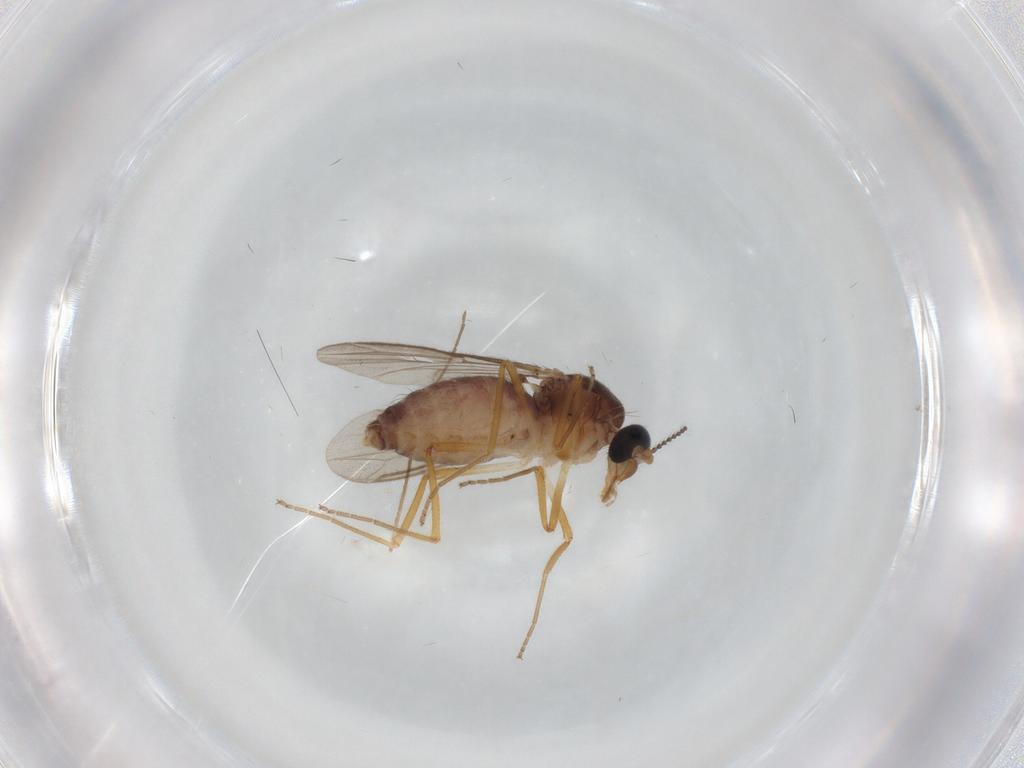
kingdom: Animalia
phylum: Arthropoda
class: Insecta
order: Diptera
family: Ceratopogonidae
